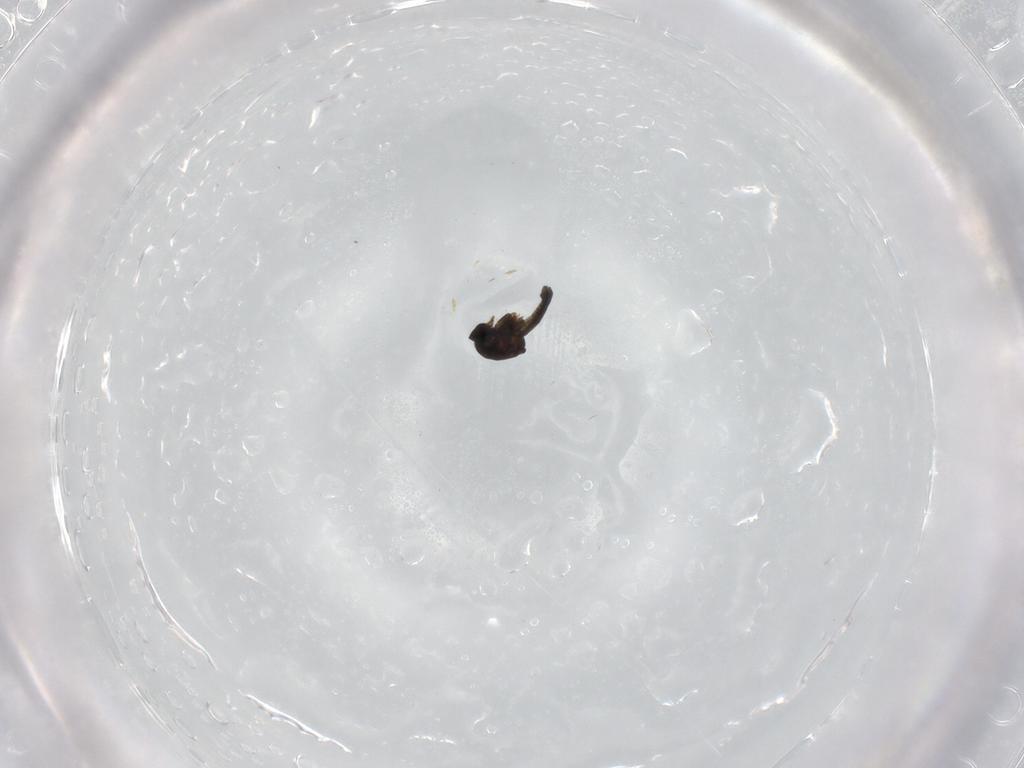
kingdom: Animalia
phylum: Arthropoda
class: Insecta
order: Diptera
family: Ceratopogonidae
